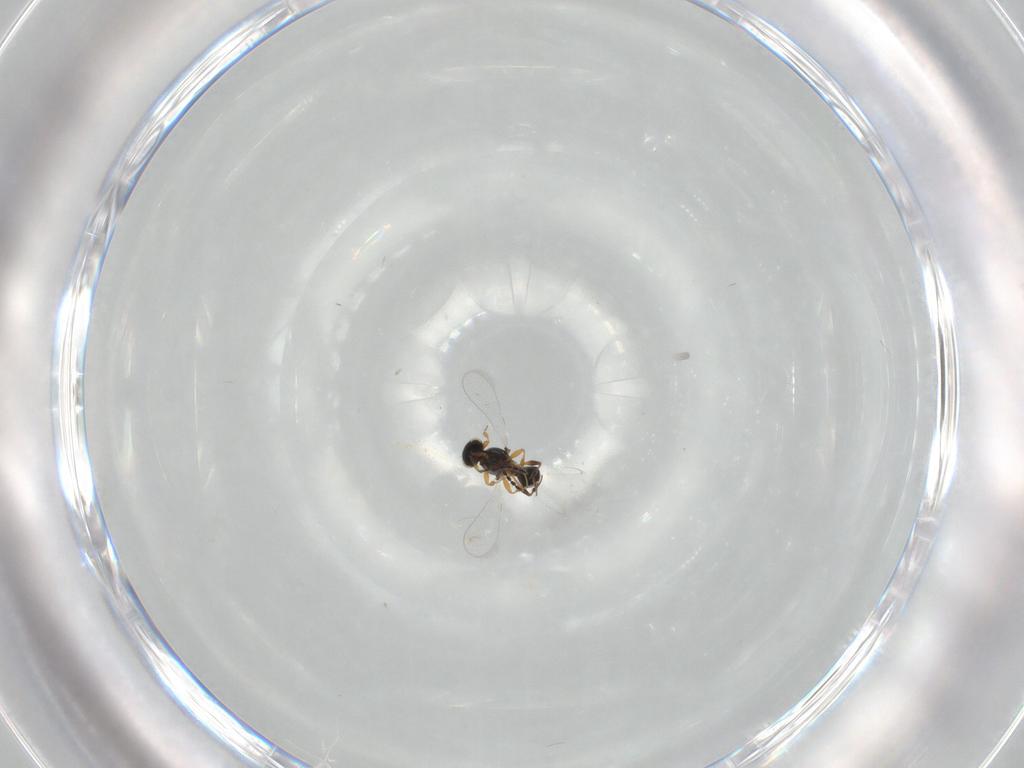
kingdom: Animalia
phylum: Arthropoda
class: Insecta
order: Hymenoptera
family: Platygastridae
